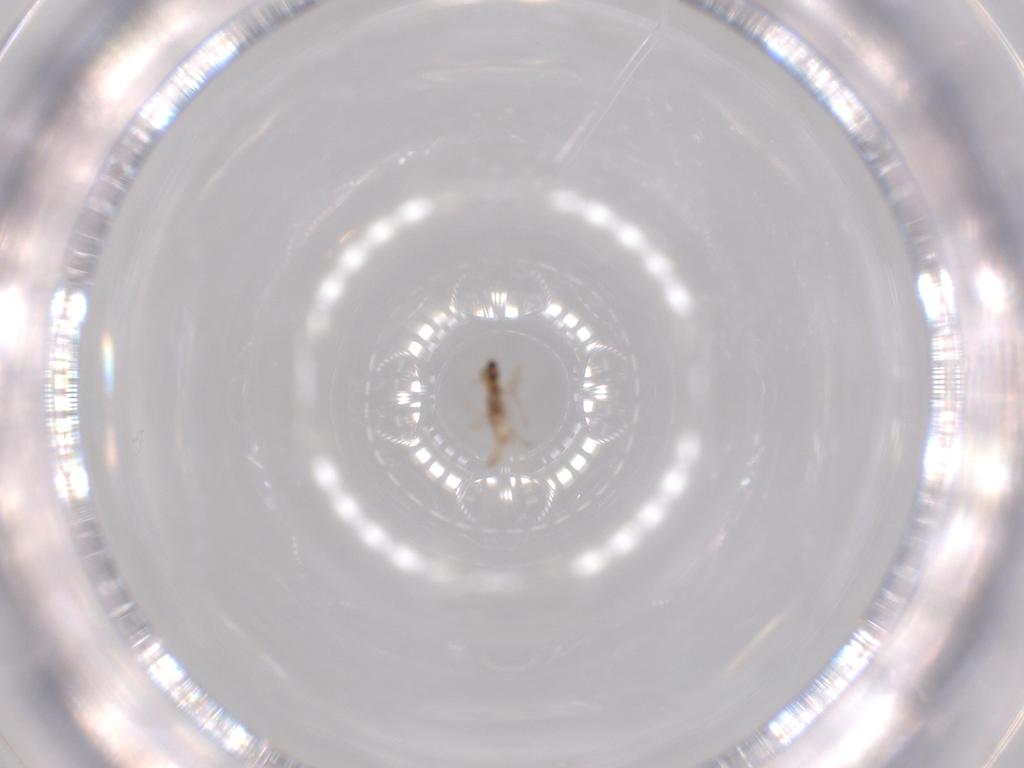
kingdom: Animalia
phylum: Arthropoda
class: Insecta
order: Diptera
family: Cecidomyiidae
